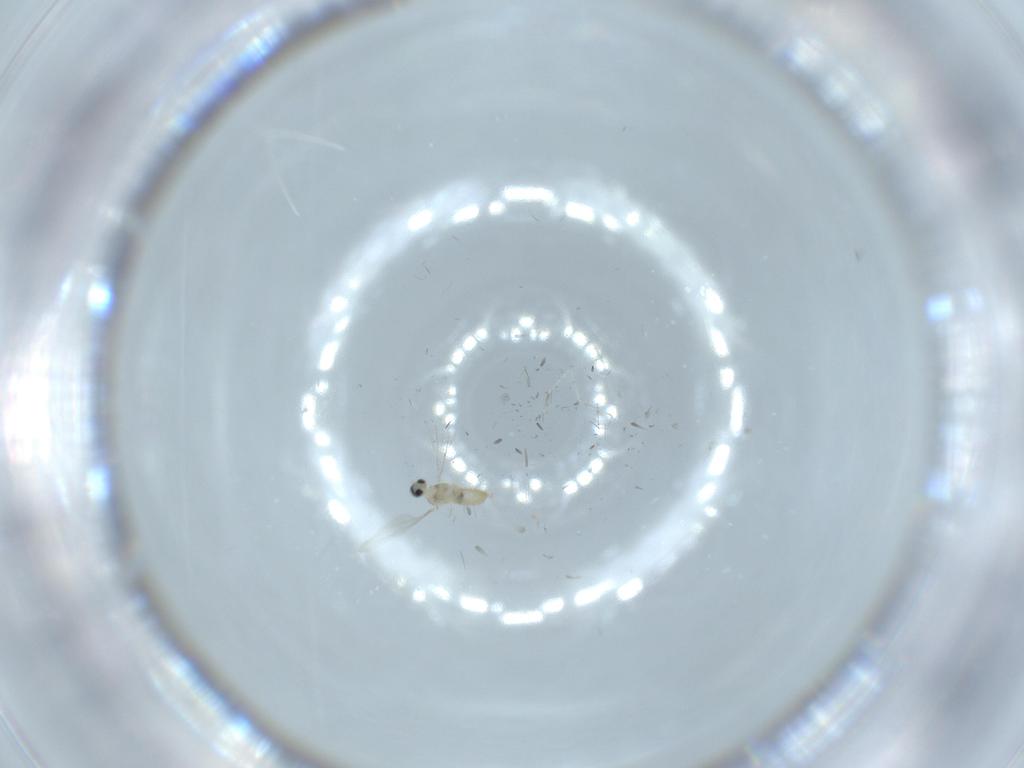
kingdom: Animalia
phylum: Arthropoda
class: Insecta
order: Diptera
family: Cecidomyiidae
